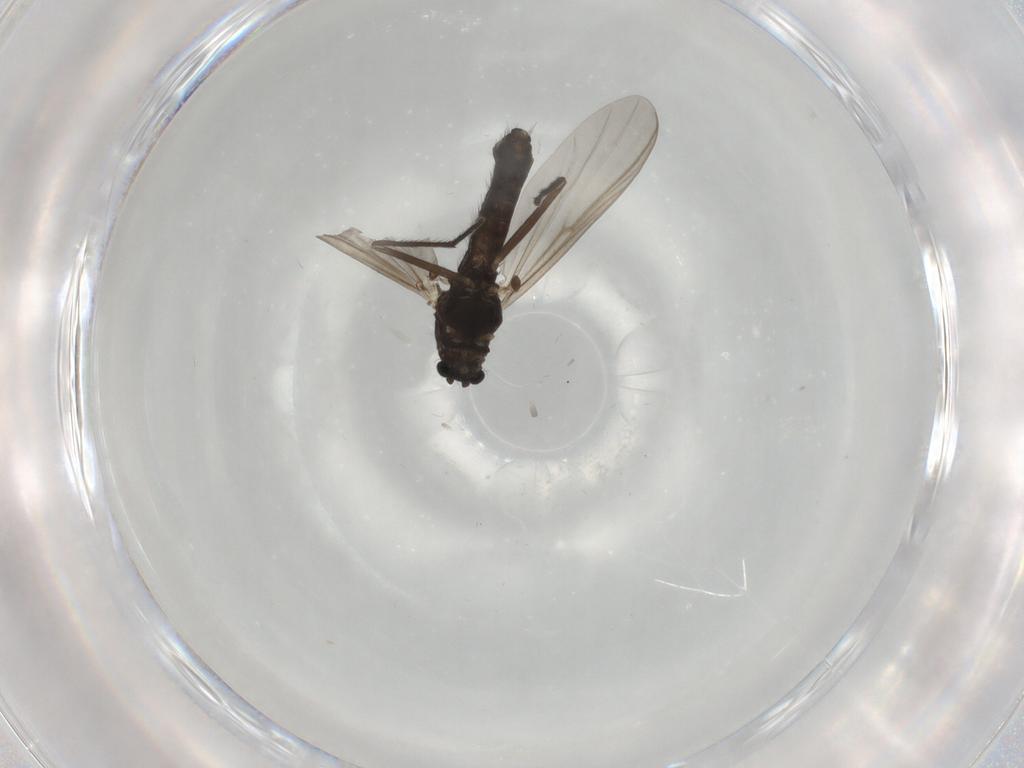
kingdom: Animalia
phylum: Arthropoda
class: Insecta
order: Diptera
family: Chironomidae
